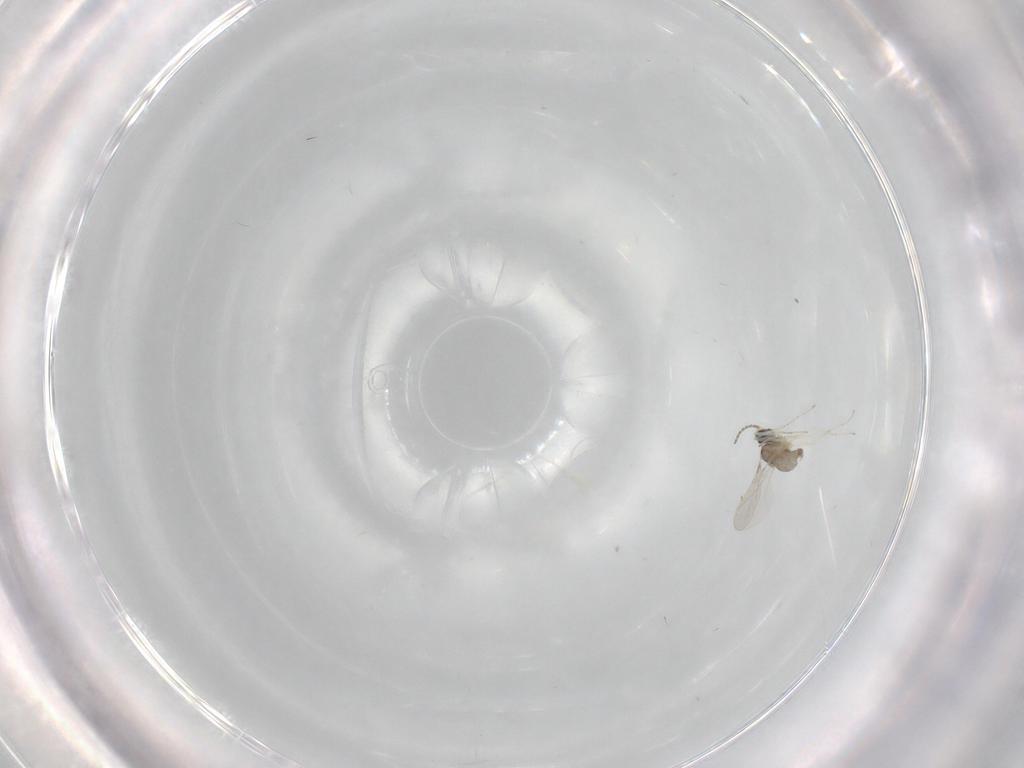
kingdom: Animalia
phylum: Arthropoda
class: Insecta
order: Diptera
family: Cecidomyiidae
